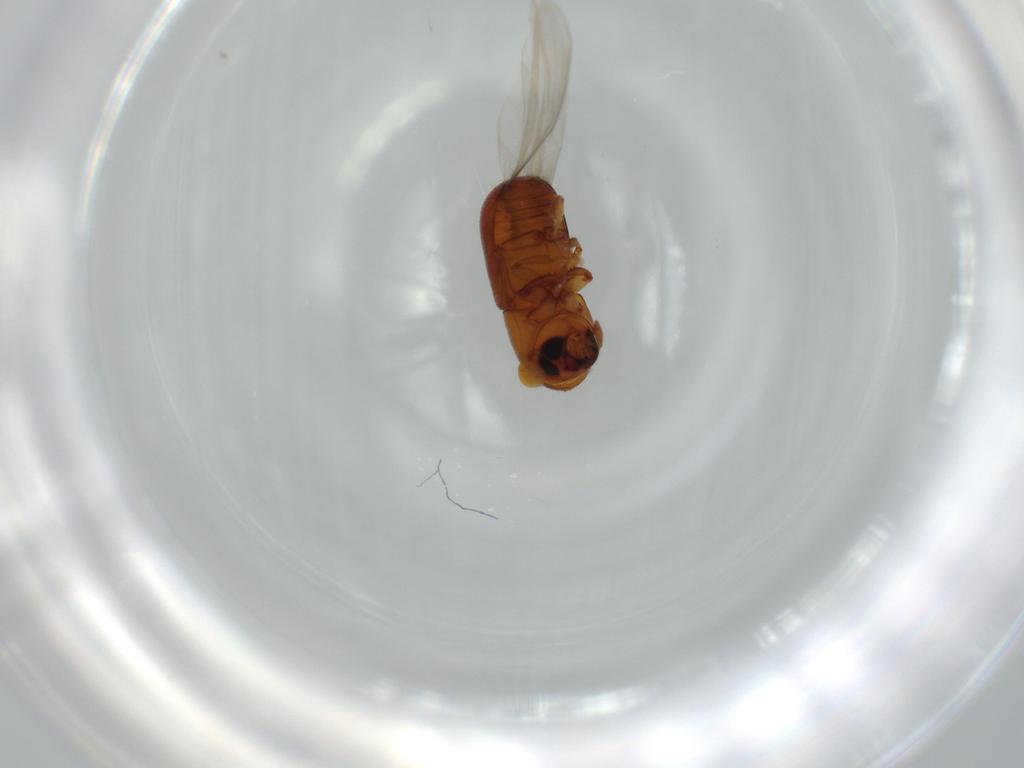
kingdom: Animalia
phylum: Arthropoda
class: Insecta
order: Coleoptera
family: Curculionidae
